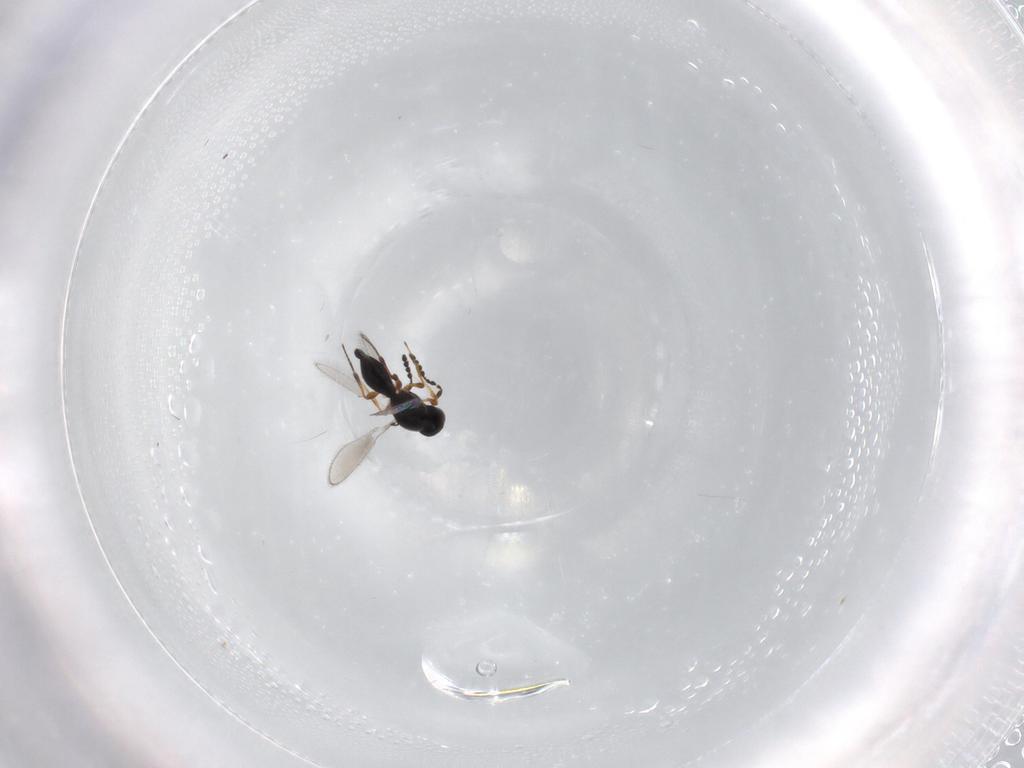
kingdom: Animalia
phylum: Arthropoda
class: Insecta
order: Hymenoptera
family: Platygastridae
